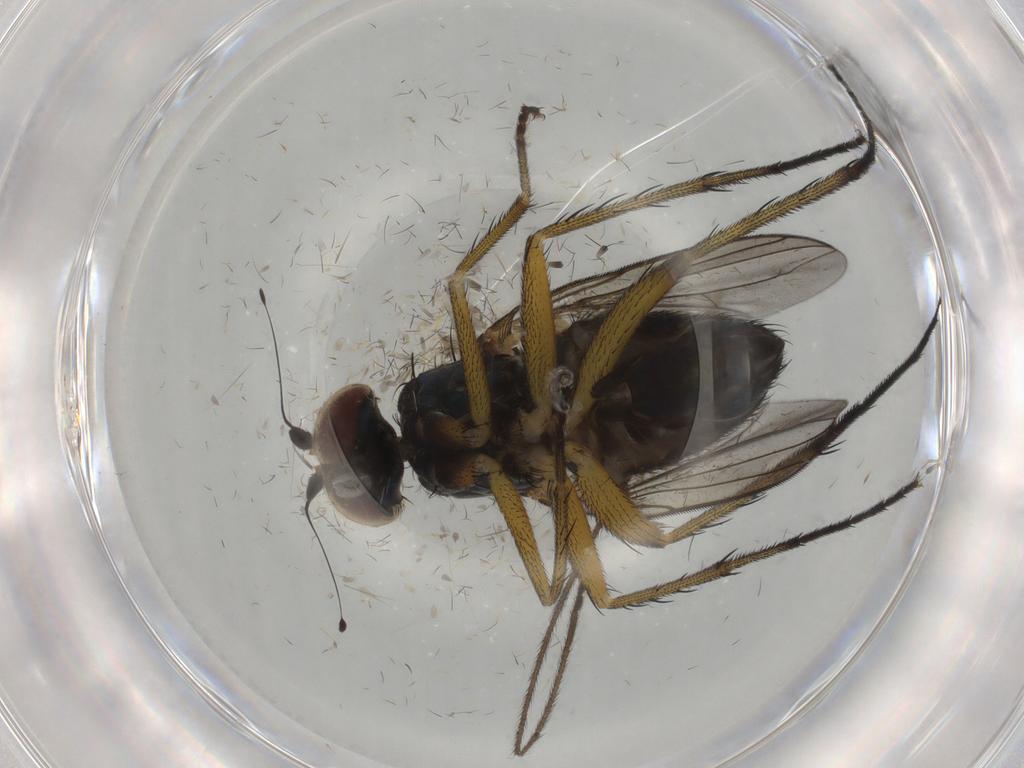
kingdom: Animalia
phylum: Arthropoda
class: Insecta
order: Diptera
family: Dolichopodidae
